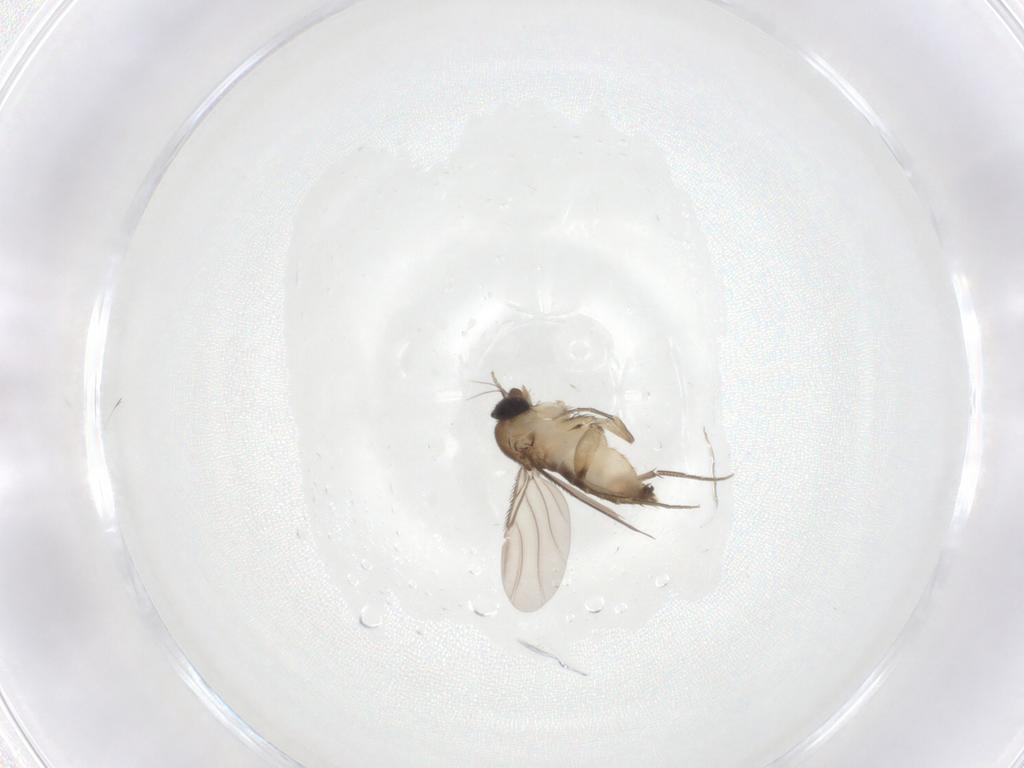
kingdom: Animalia
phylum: Arthropoda
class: Insecta
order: Diptera
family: Phoridae
